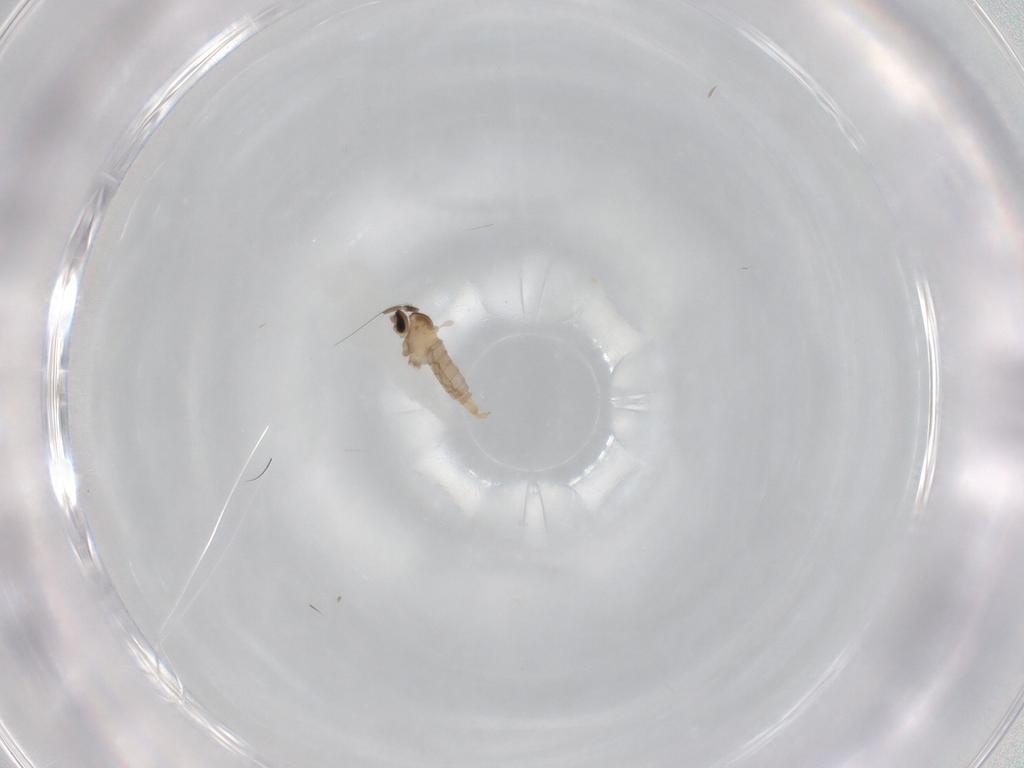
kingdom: Animalia
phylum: Arthropoda
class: Insecta
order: Diptera
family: Cecidomyiidae
